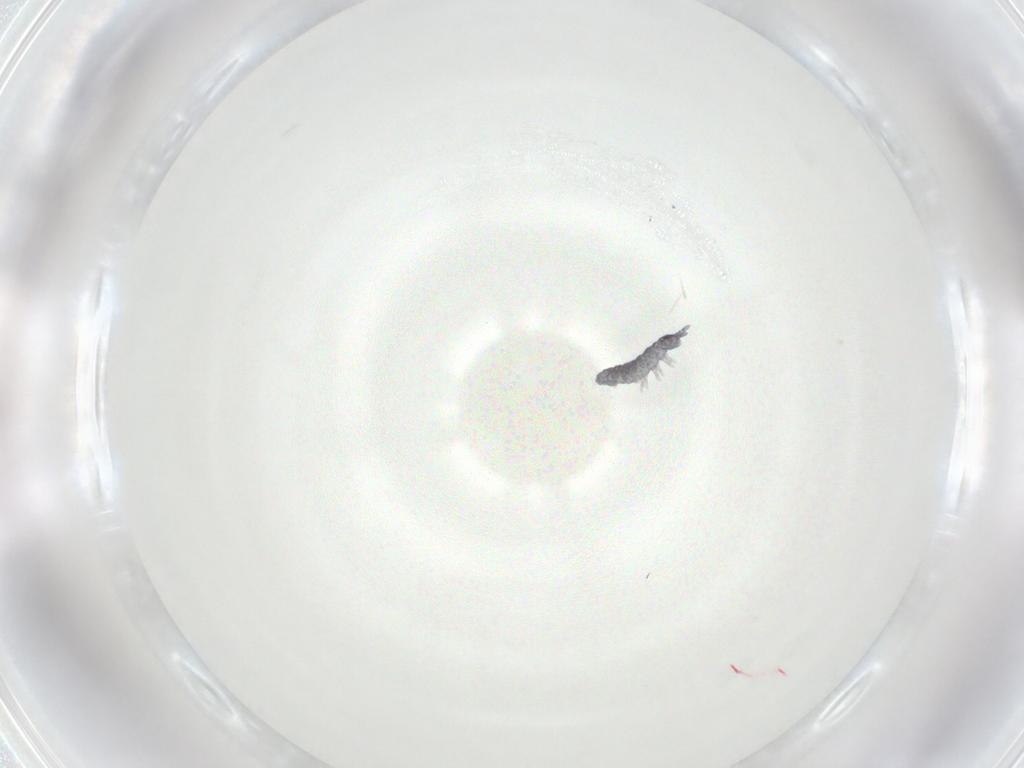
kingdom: Animalia
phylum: Arthropoda
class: Collembola
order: Poduromorpha
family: Hypogastruridae
